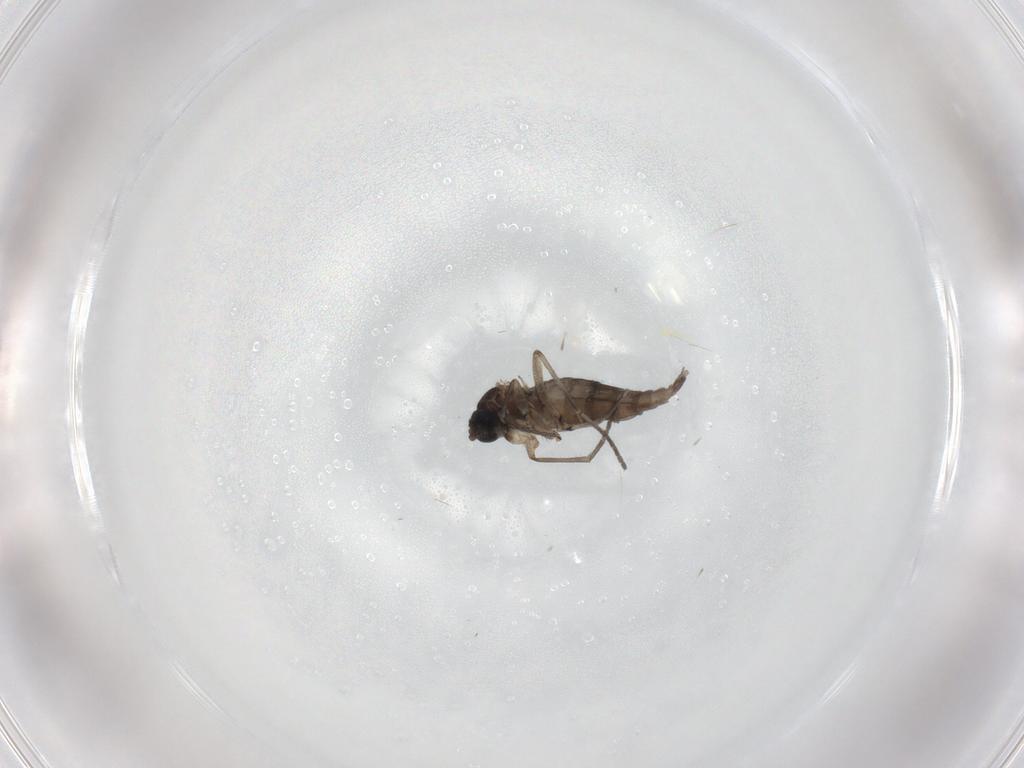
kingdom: Animalia
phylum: Arthropoda
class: Insecta
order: Diptera
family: Sciaridae
